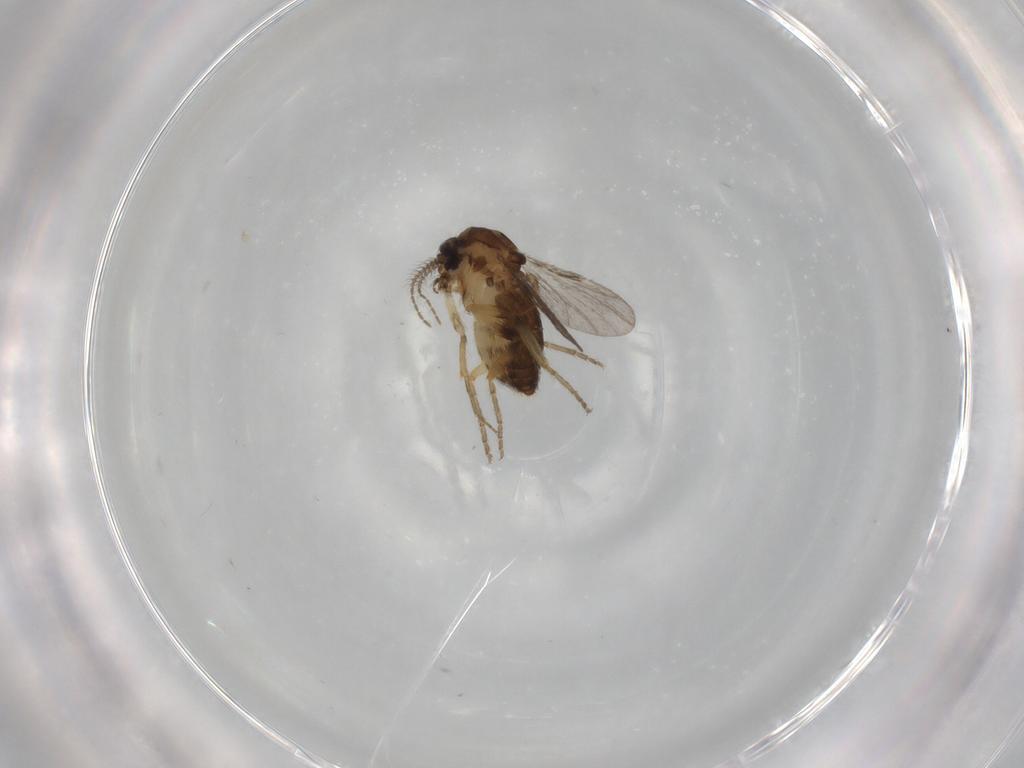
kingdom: Animalia
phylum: Arthropoda
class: Insecta
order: Diptera
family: Ceratopogonidae
